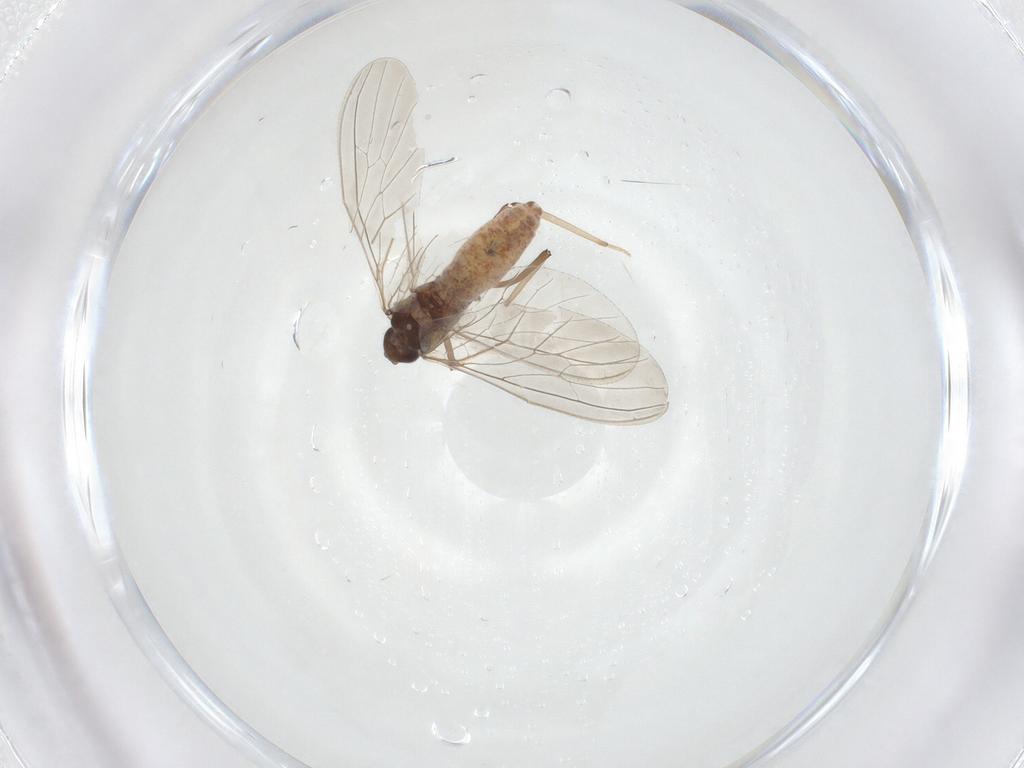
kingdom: Animalia
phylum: Arthropoda
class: Insecta
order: Neuroptera
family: Coniopterygidae
